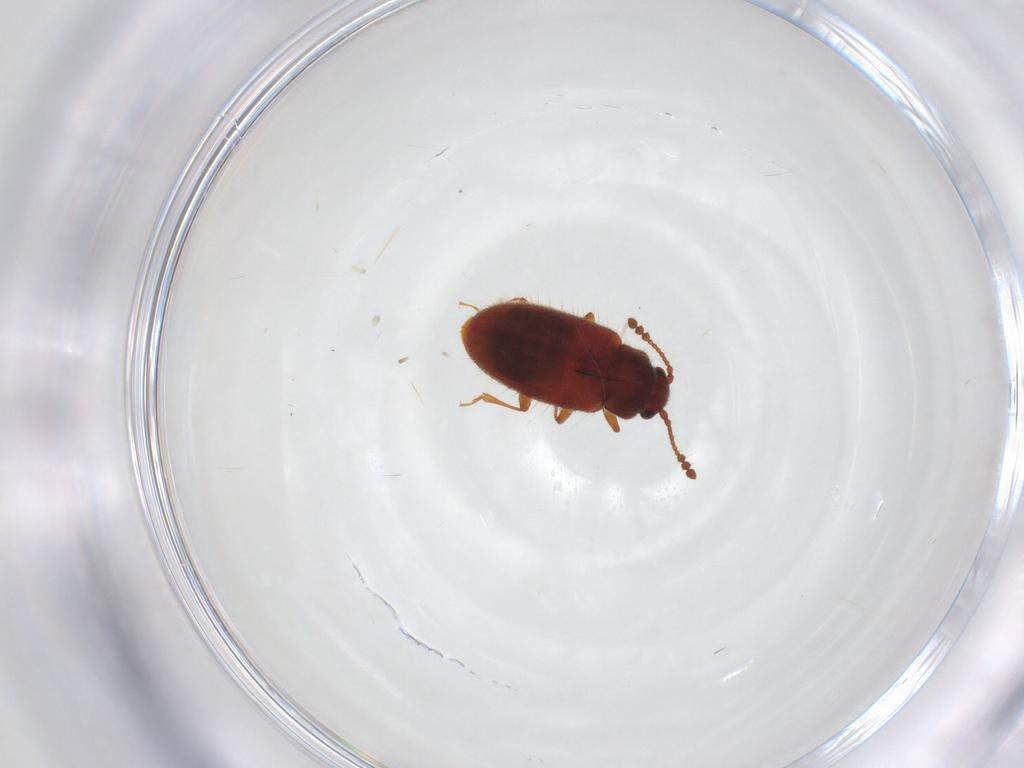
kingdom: Animalia
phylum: Arthropoda
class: Insecta
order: Coleoptera
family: Cryptophagidae
